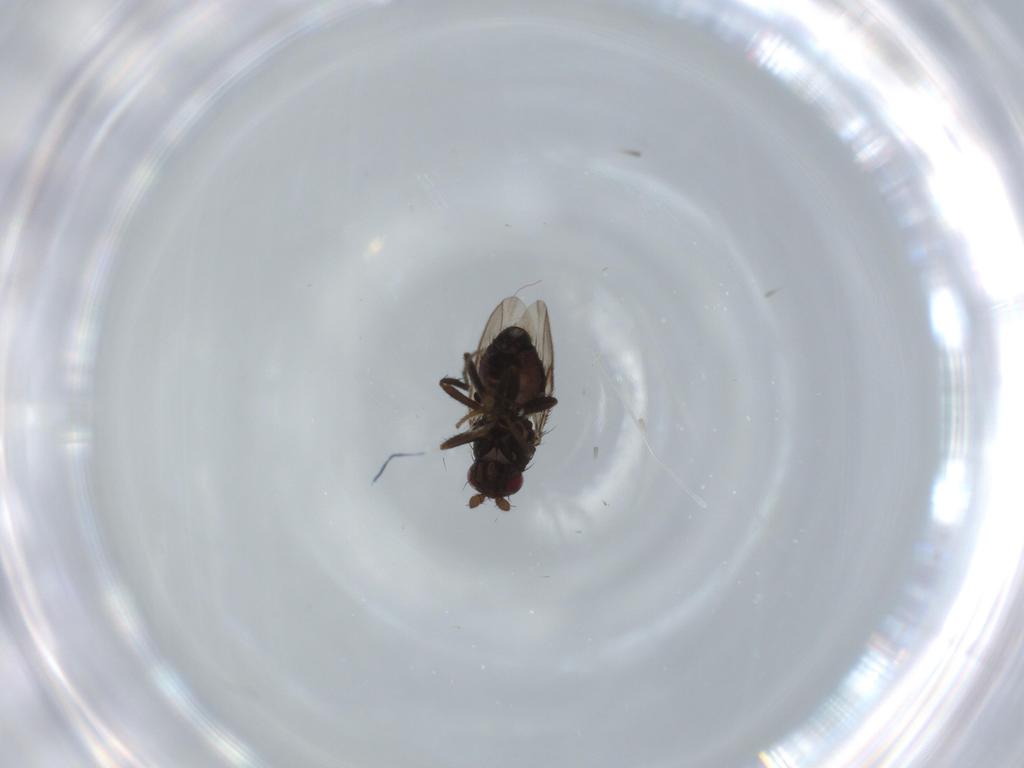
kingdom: Animalia
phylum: Arthropoda
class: Insecta
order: Diptera
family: Sphaeroceridae
